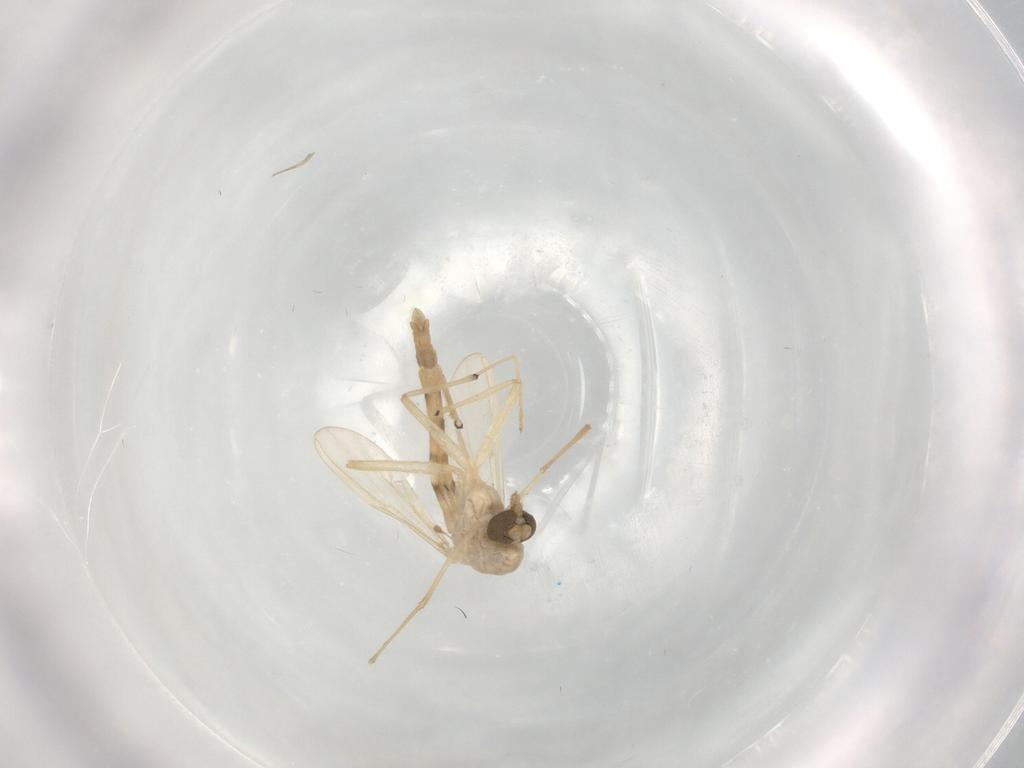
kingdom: Animalia
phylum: Arthropoda
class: Insecta
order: Diptera
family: Chironomidae
